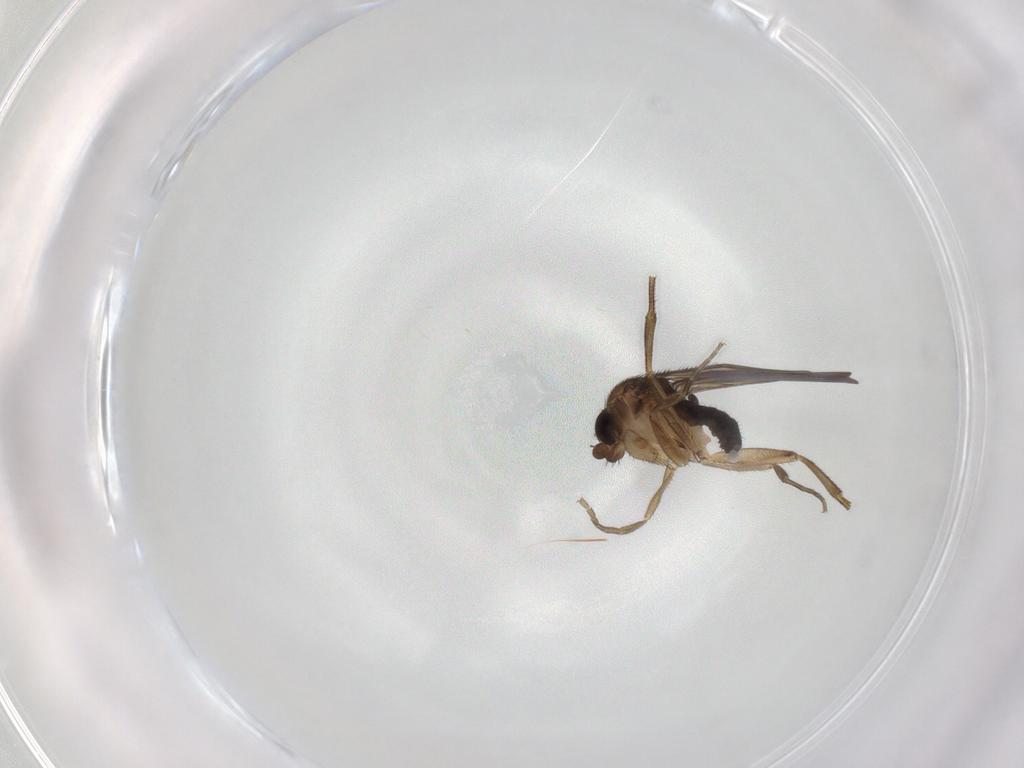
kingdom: Animalia
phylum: Arthropoda
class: Insecta
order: Diptera
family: Phoridae
